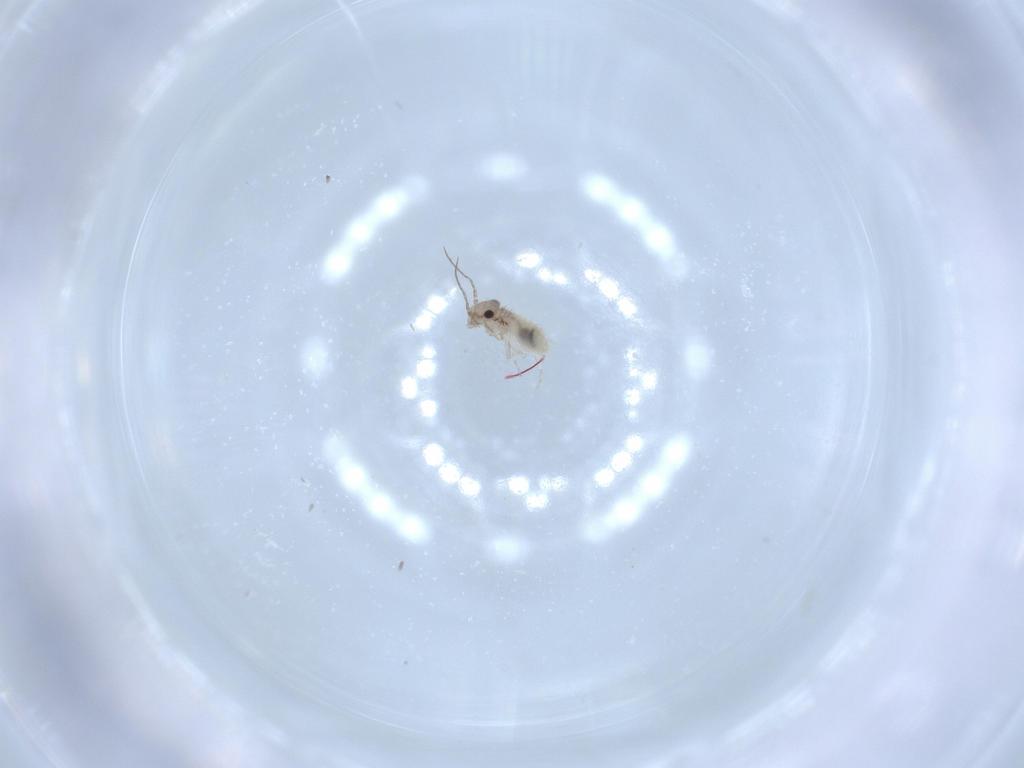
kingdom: Animalia
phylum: Arthropoda
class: Insecta
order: Psocodea
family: Lepidopsocidae
